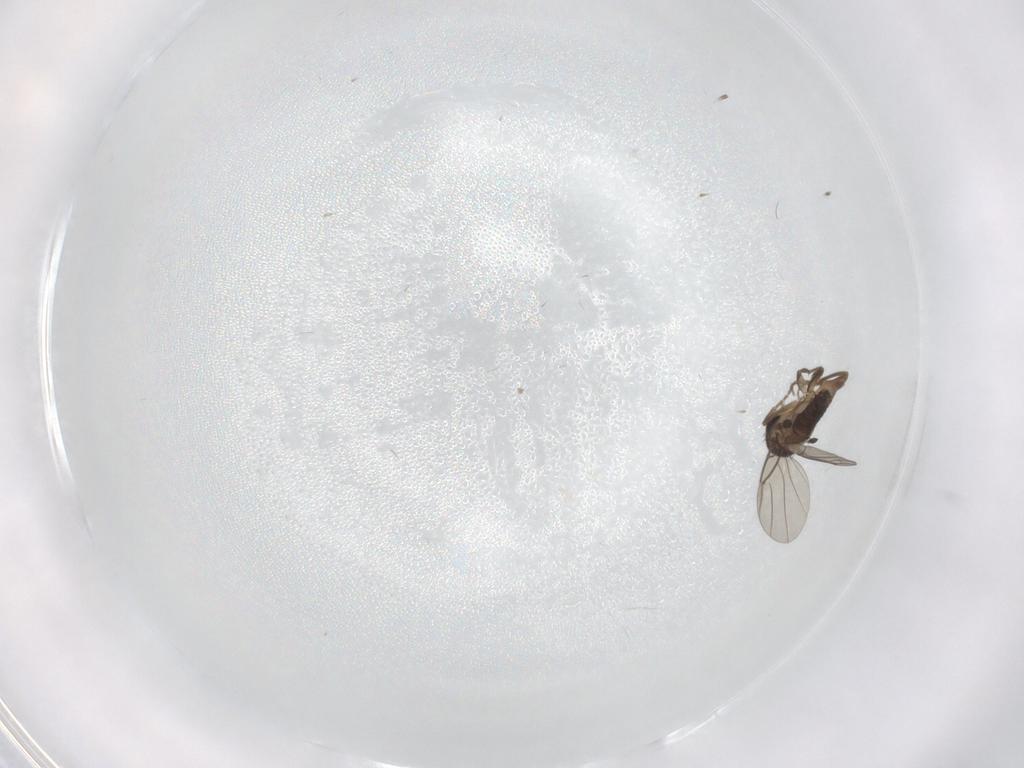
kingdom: Animalia
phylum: Arthropoda
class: Insecta
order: Diptera
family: Phoridae
